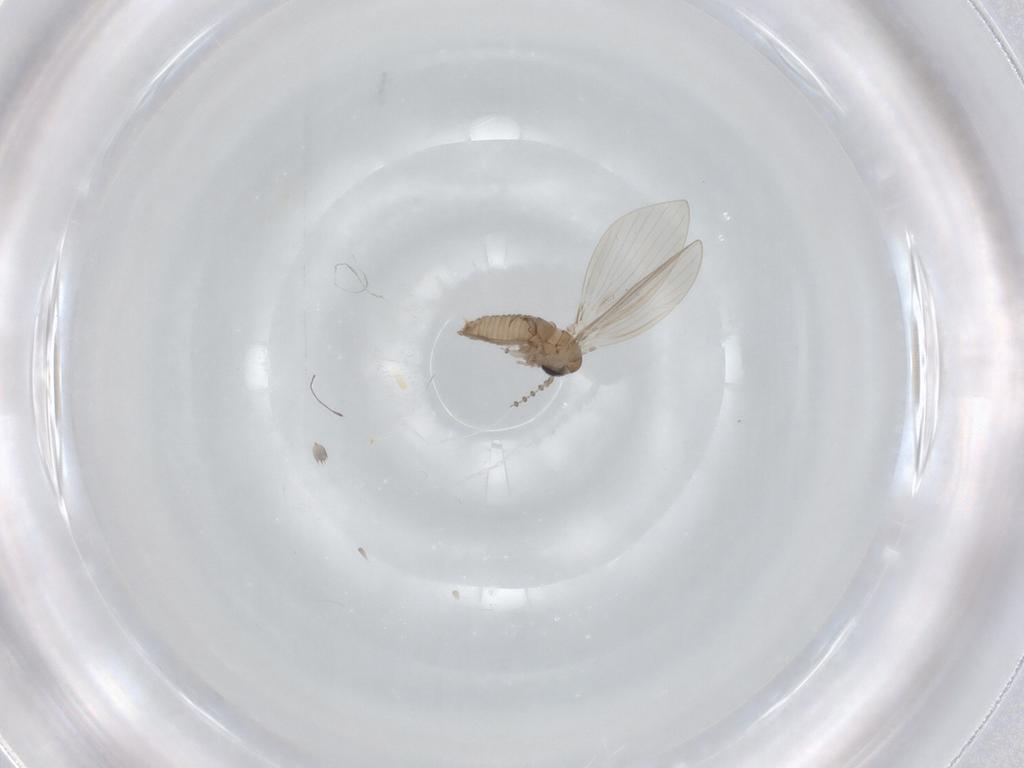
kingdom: Animalia
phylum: Arthropoda
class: Insecta
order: Diptera
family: Psychodidae
